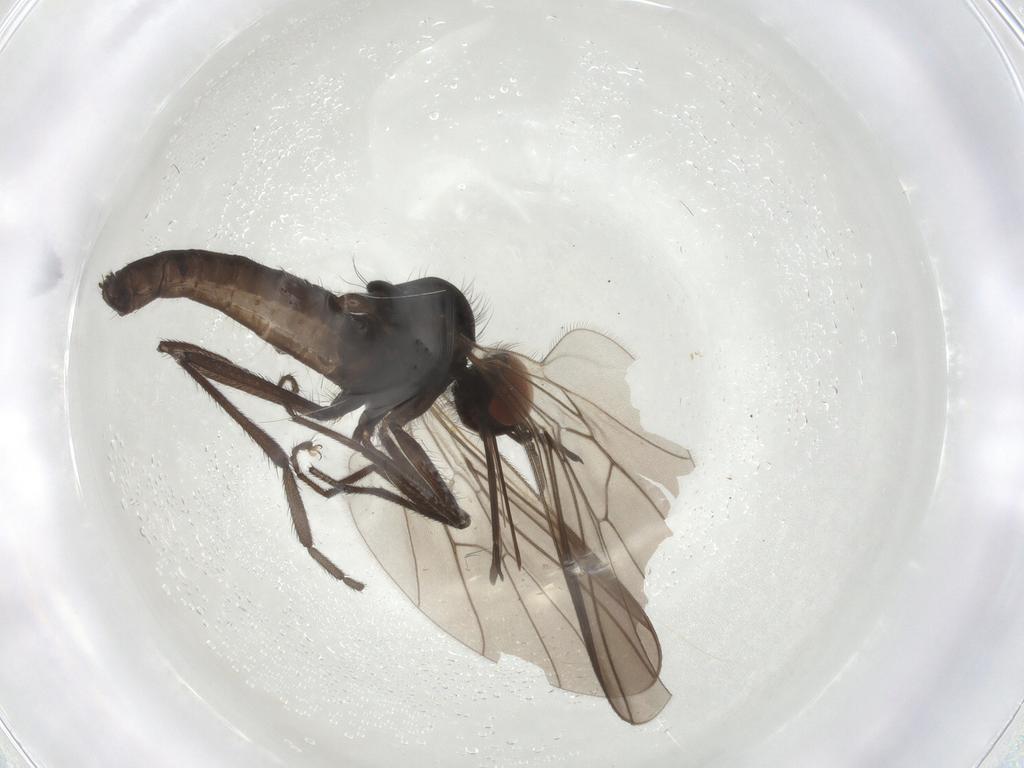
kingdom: Animalia
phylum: Arthropoda
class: Insecta
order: Diptera
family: Empididae
